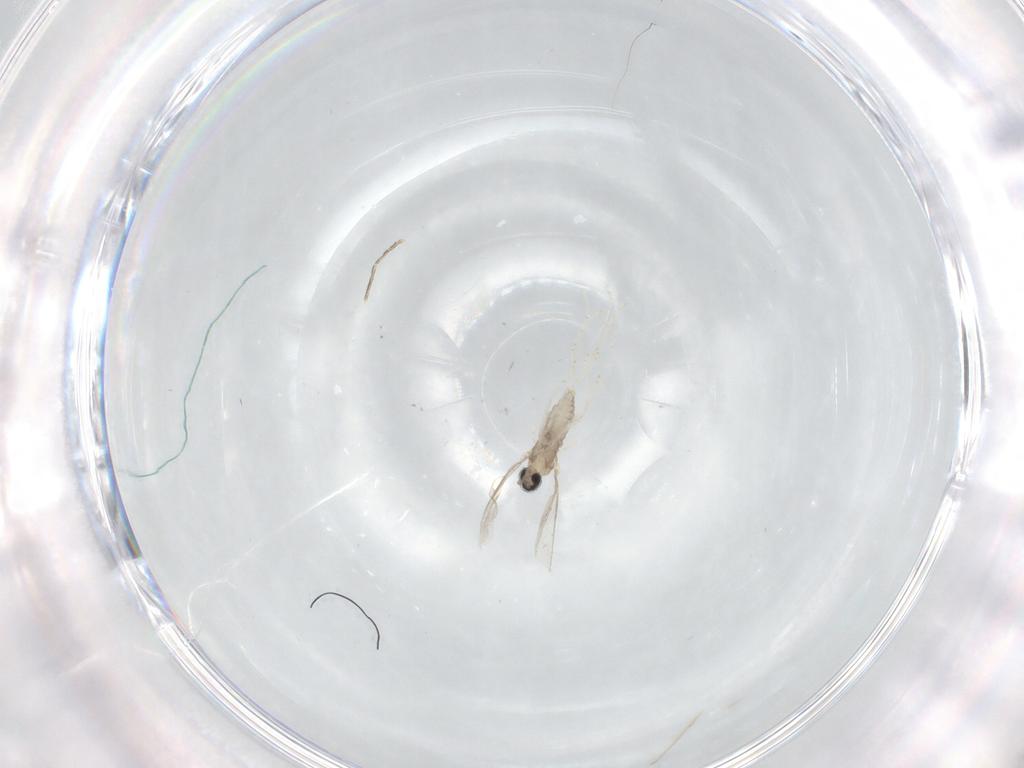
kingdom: Animalia
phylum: Arthropoda
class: Insecta
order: Diptera
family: Cecidomyiidae
